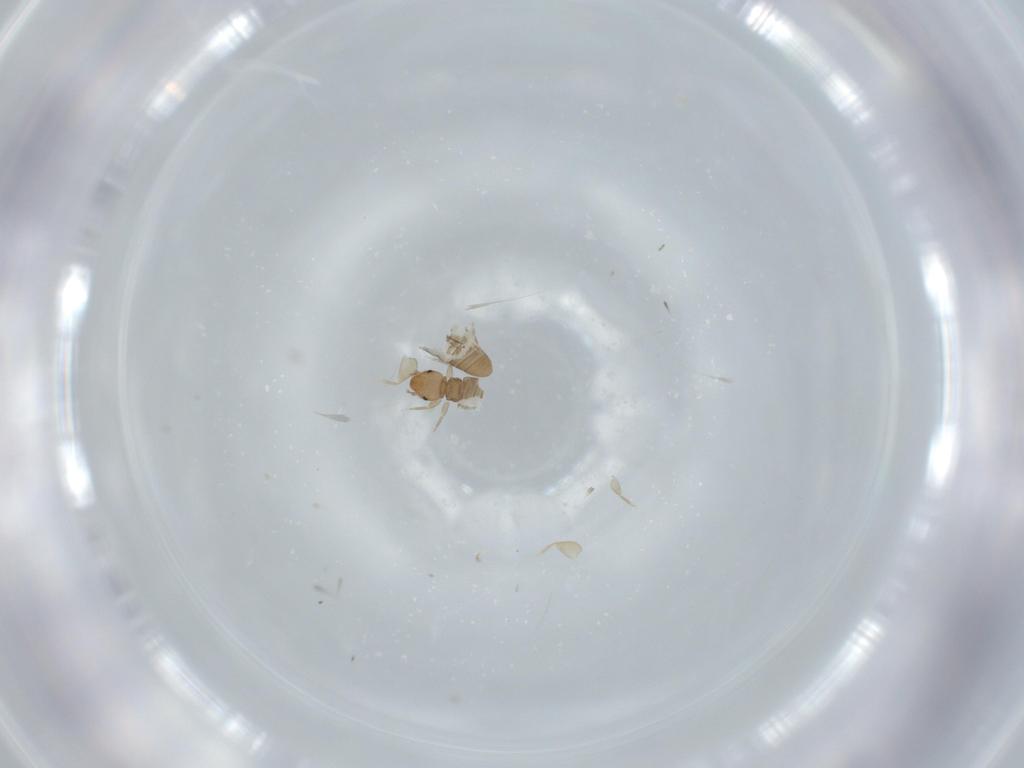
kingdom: Animalia
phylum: Arthropoda
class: Insecta
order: Psocodea
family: Liposcelididae
